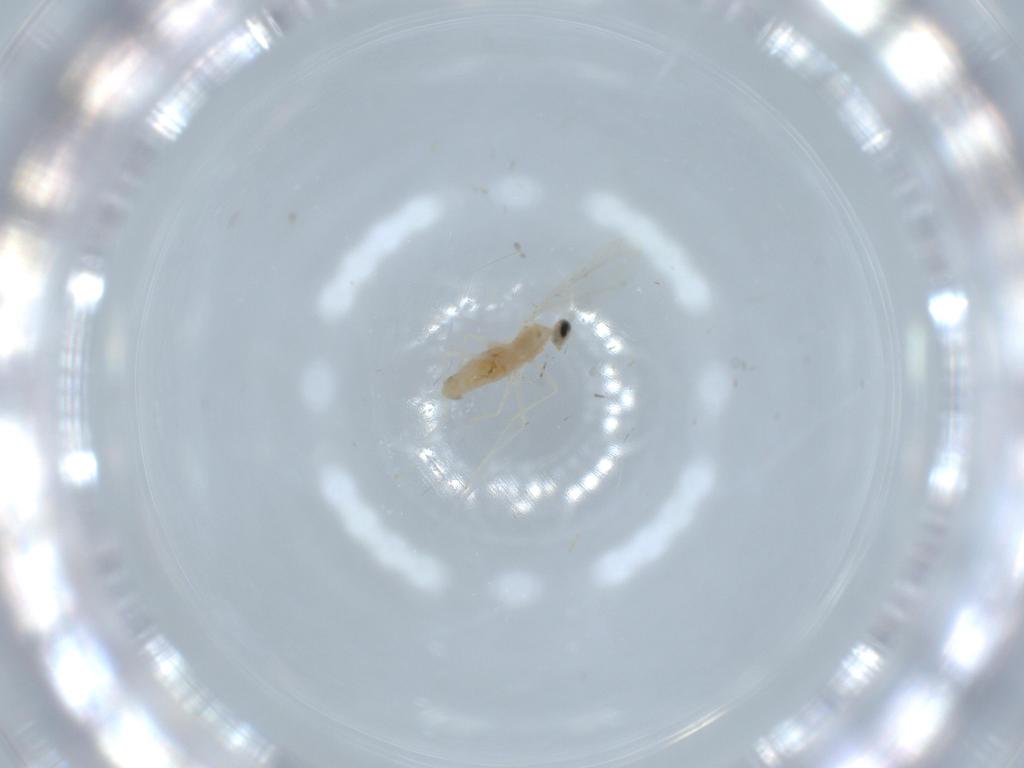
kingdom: Animalia
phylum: Arthropoda
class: Insecta
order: Diptera
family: Cecidomyiidae
